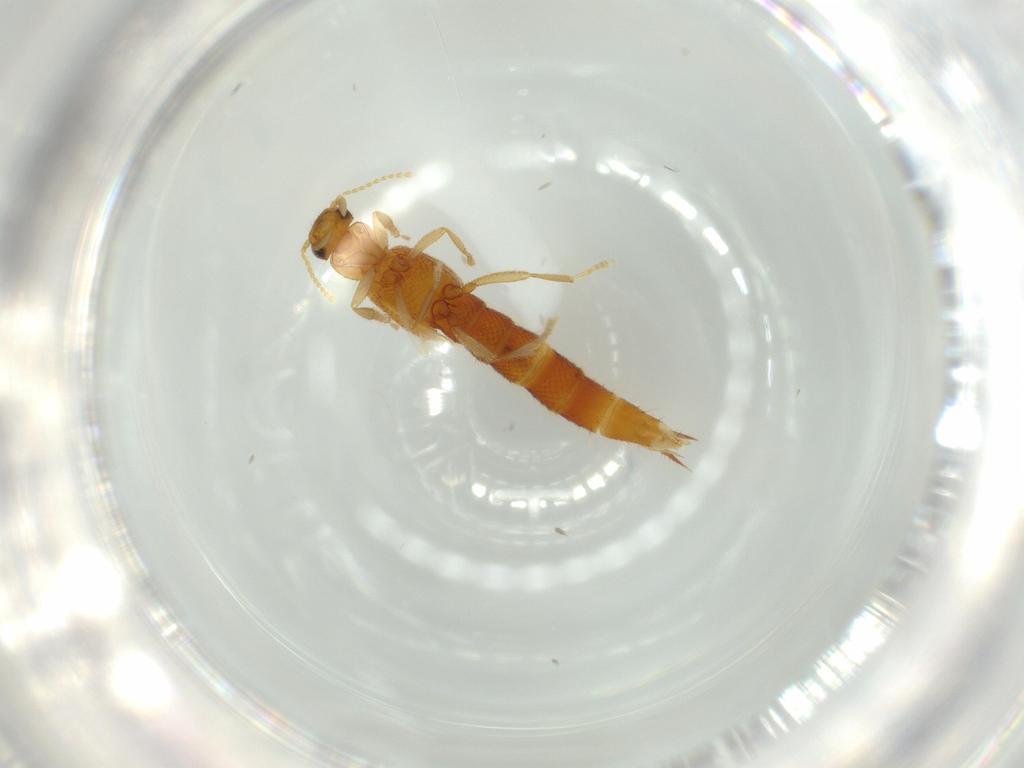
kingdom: Animalia
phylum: Arthropoda
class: Insecta
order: Coleoptera
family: Staphylinidae
